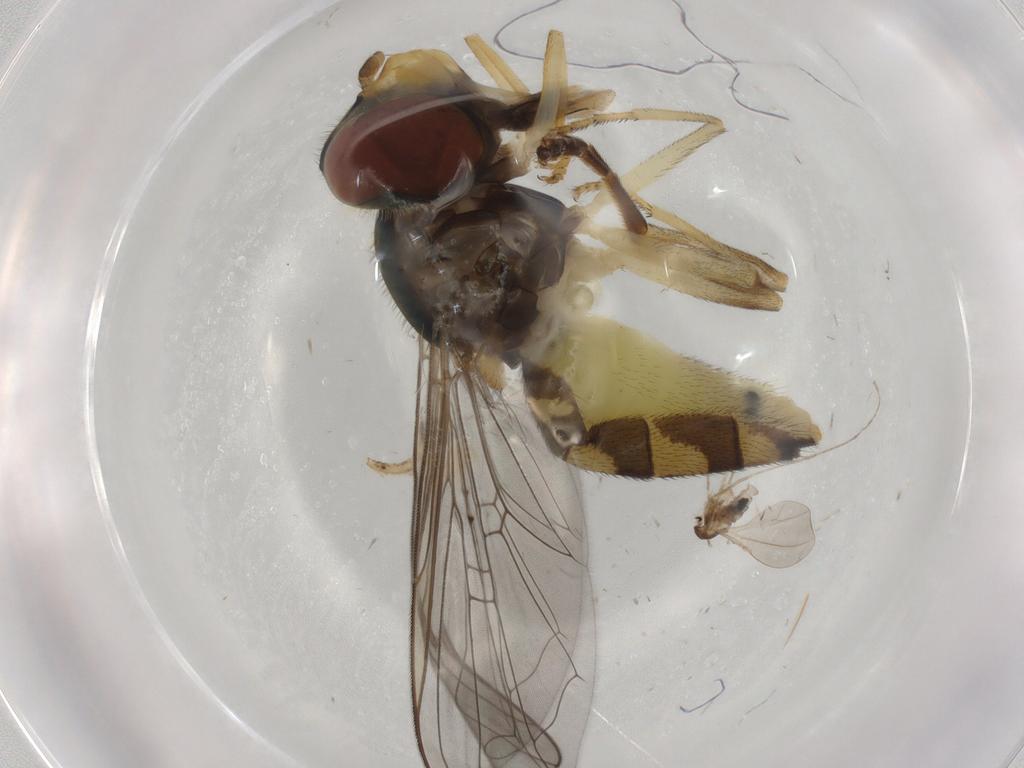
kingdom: Animalia
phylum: Arthropoda
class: Insecta
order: Diptera
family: Cecidomyiidae
